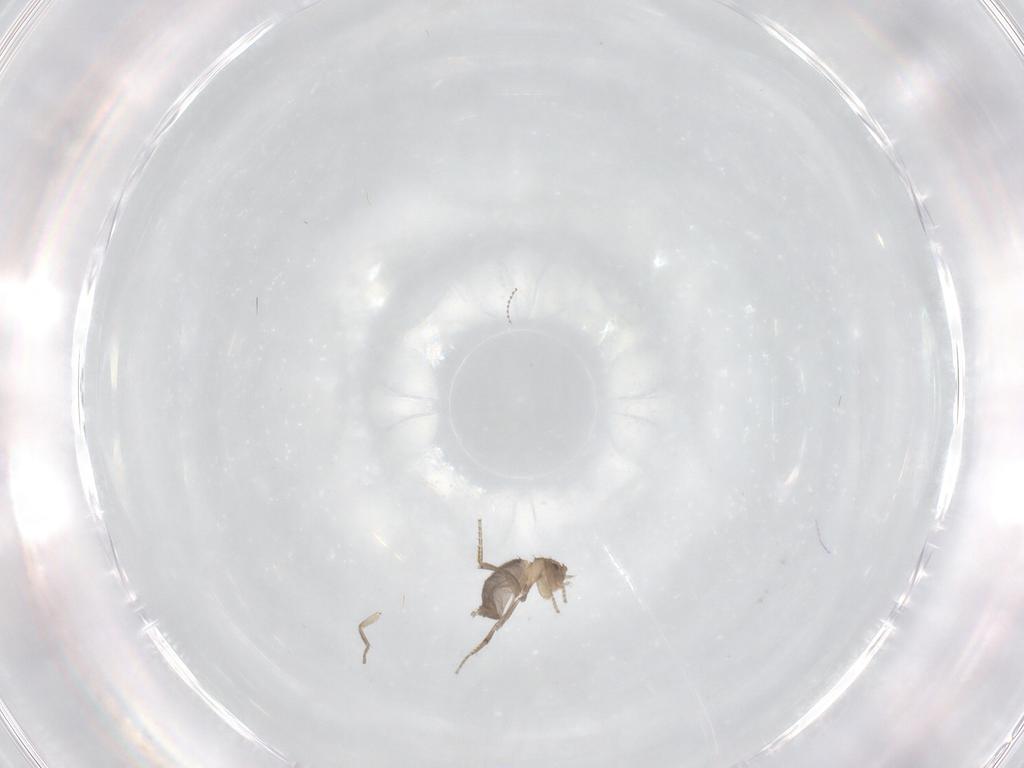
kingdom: Animalia
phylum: Arthropoda
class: Insecta
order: Diptera
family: Cecidomyiidae
